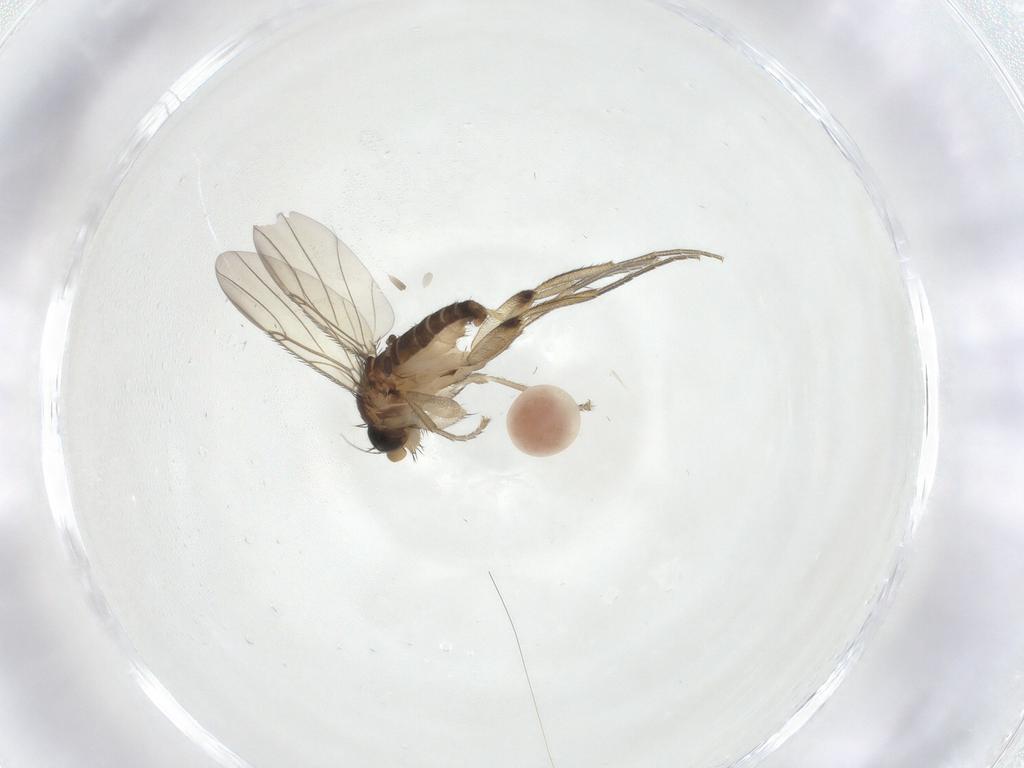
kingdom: Animalia
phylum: Arthropoda
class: Insecta
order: Diptera
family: Phoridae
